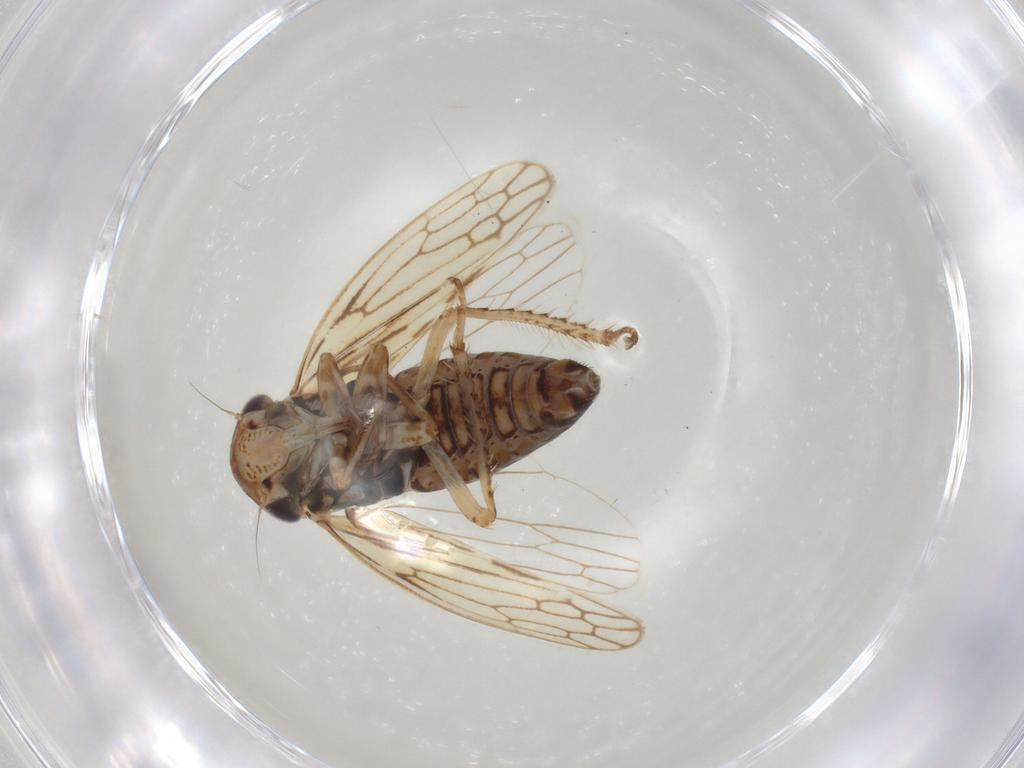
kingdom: Animalia
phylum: Arthropoda
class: Insecta
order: Hemiptera
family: Cicadellidae
